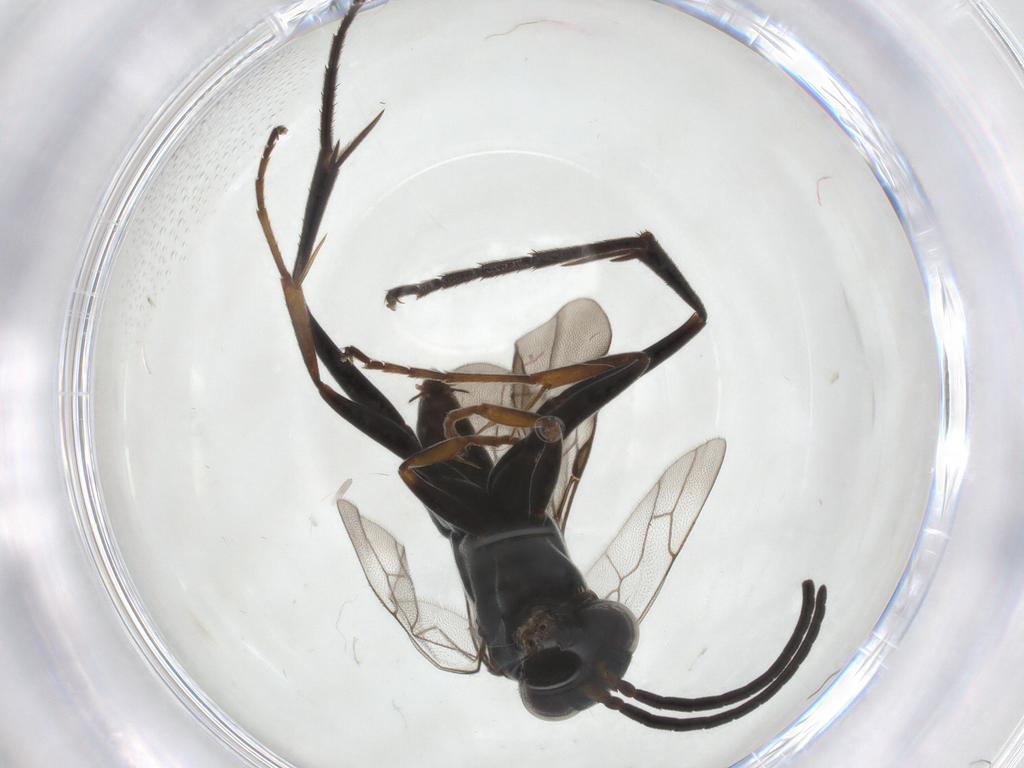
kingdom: Animalia
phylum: Arthropoda
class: Insecta
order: Hymenoptera
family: Pompilidae
